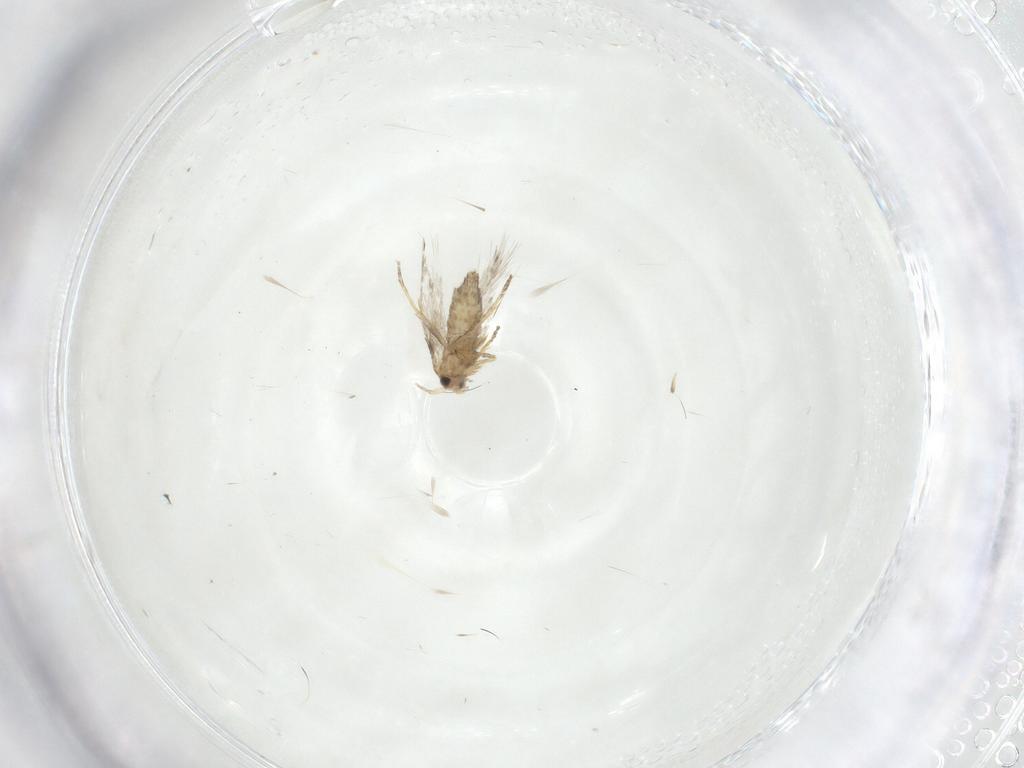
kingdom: Animalia
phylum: Arthropoda
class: Insecta
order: Lepidoptera
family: Nepticulidae
